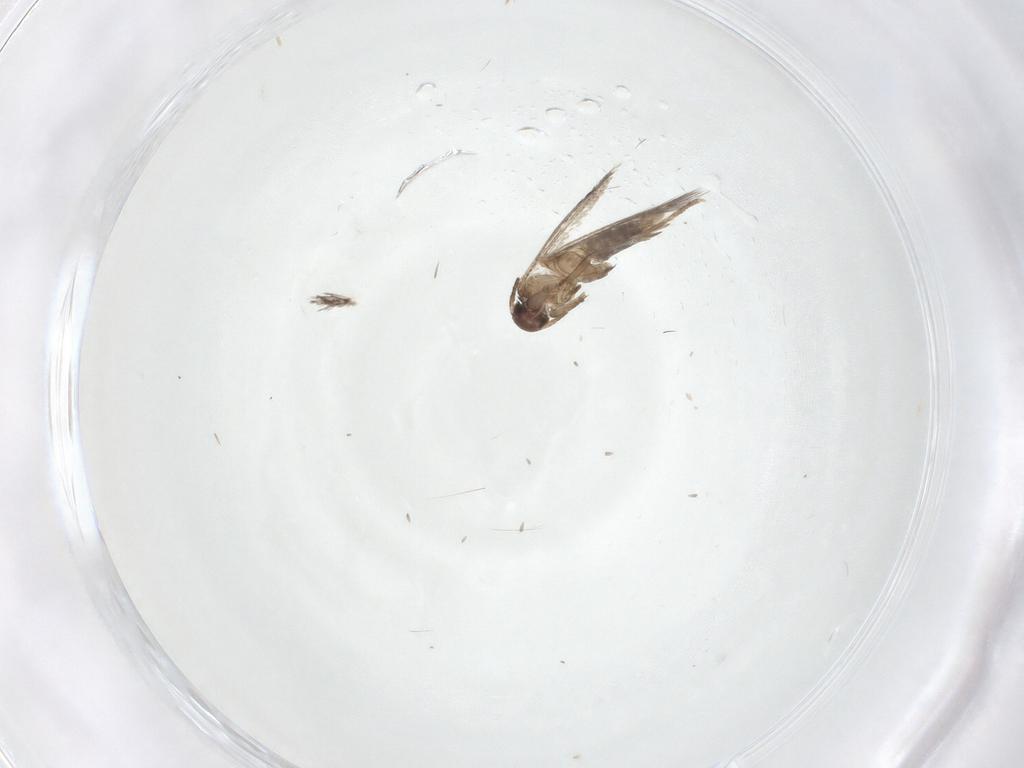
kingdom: Animalia
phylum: Arthropoda
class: Insecta
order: Lepidoptera
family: Gracillariidae
